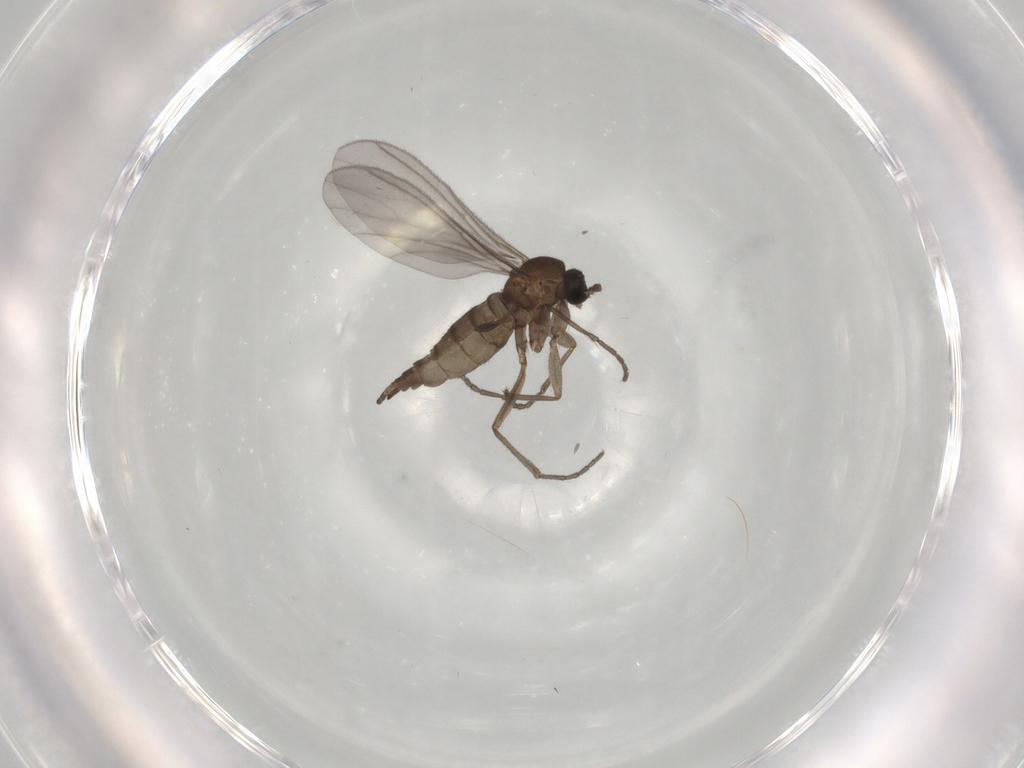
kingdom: Animalia
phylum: Arthropoda
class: Insecta
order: Diptera
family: Sciaridae
